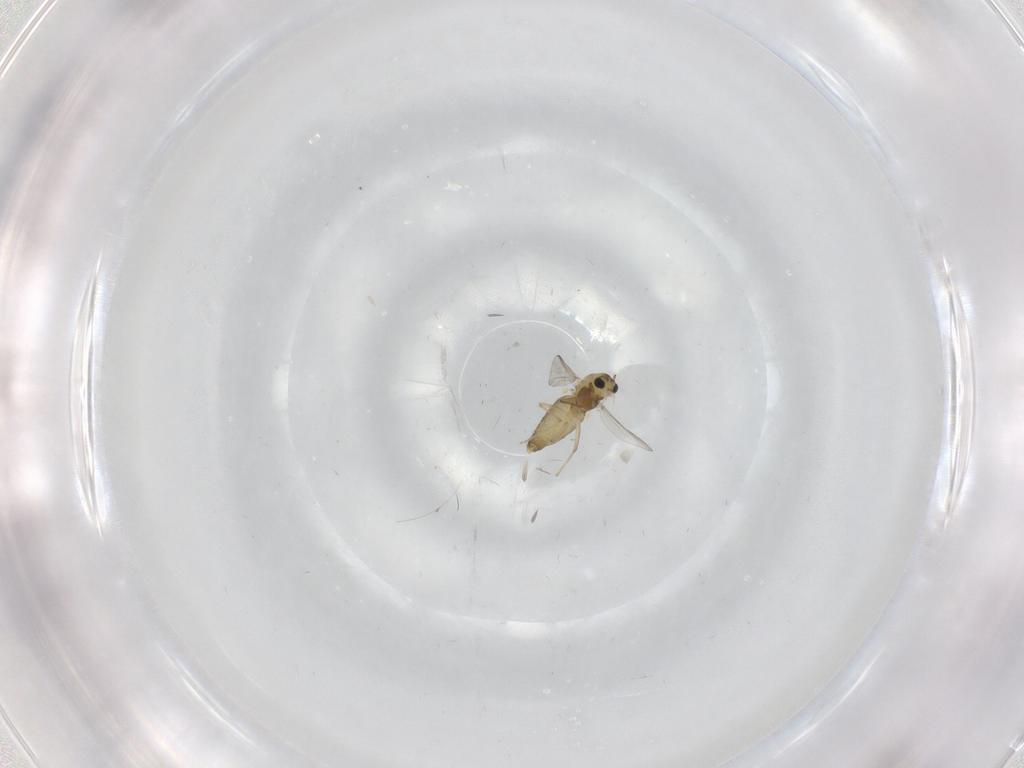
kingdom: Animalia
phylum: Arthropoda
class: Insecta
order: Diptera
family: Chironomidae
